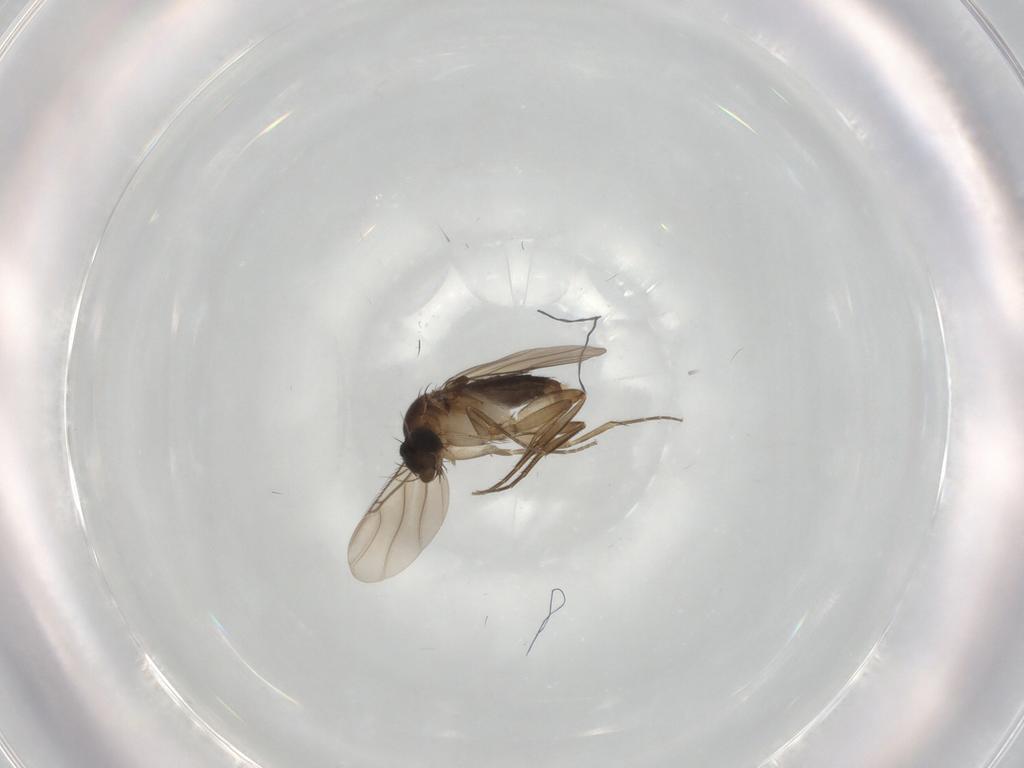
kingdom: Animalia
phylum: Arthropoda
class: Insecta
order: Diptera
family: Phoridae
